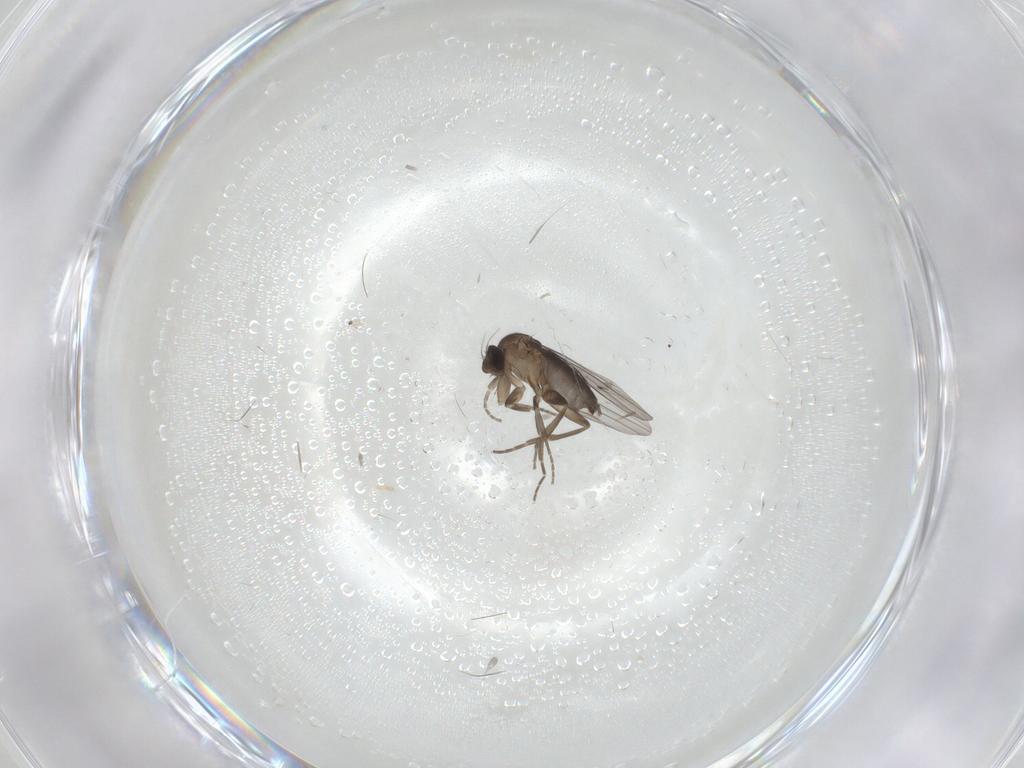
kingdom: Animalia
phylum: Arthropoda
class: Insecta
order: Diptera
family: Phoridae
